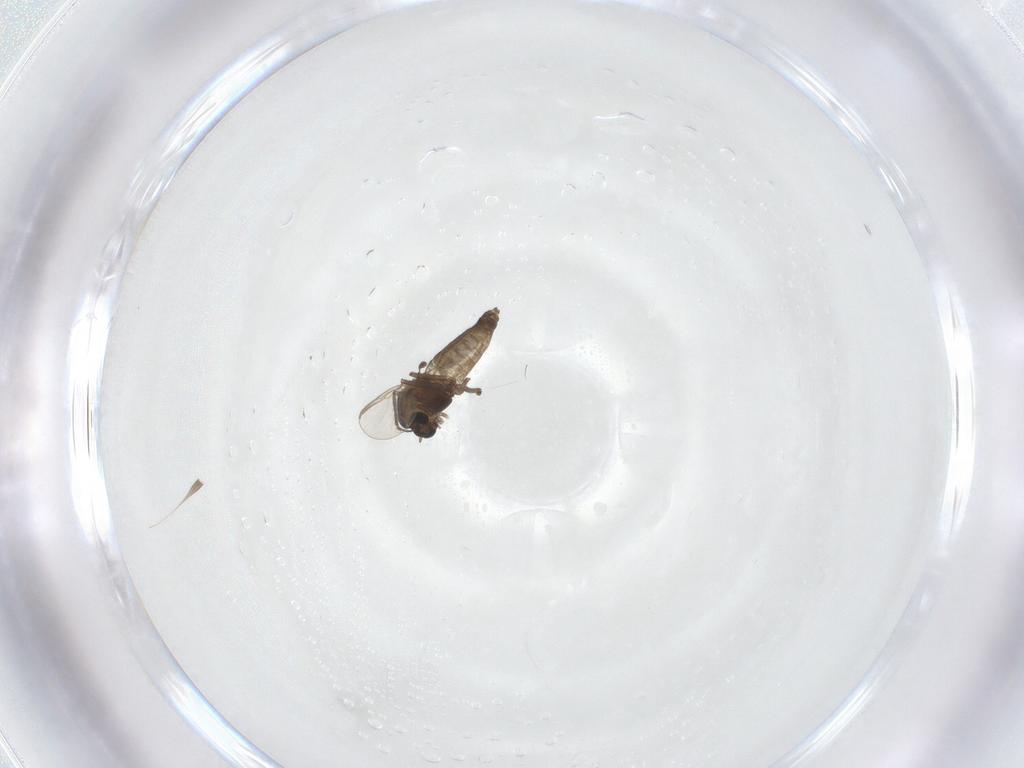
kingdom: Animalia
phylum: Arthropoda
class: Insecta
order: Diptera
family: Chironomidae
